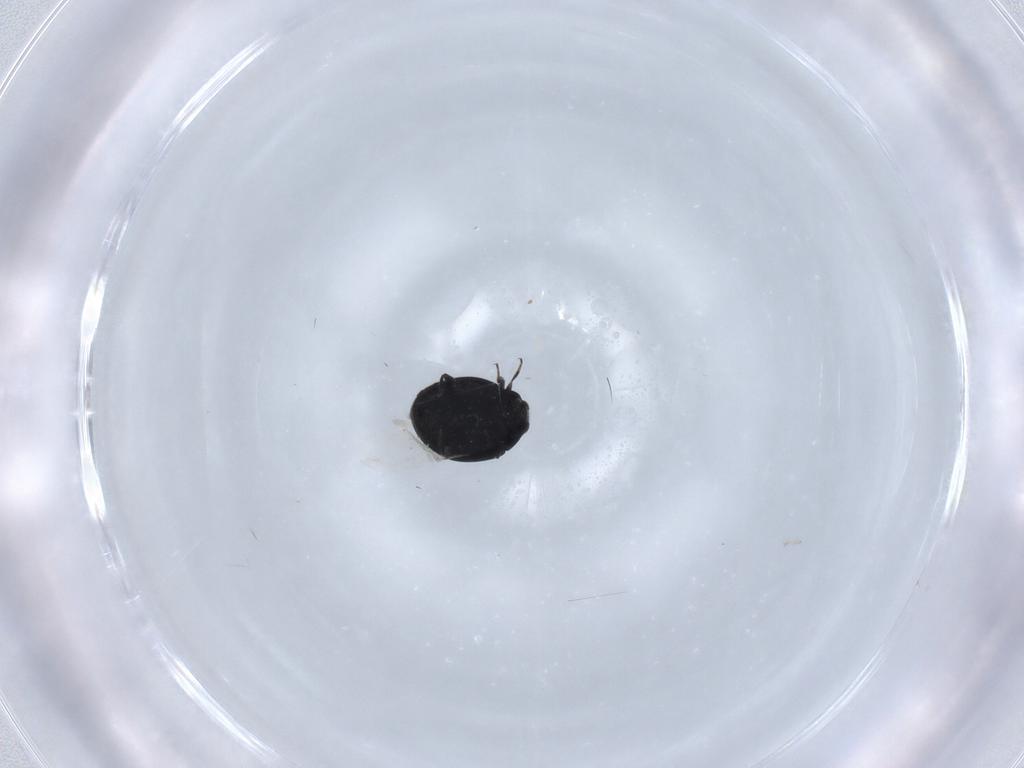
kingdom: Animalia
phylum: Arthropoda
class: Insecta
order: Coleoptera
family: Coccinellidae
